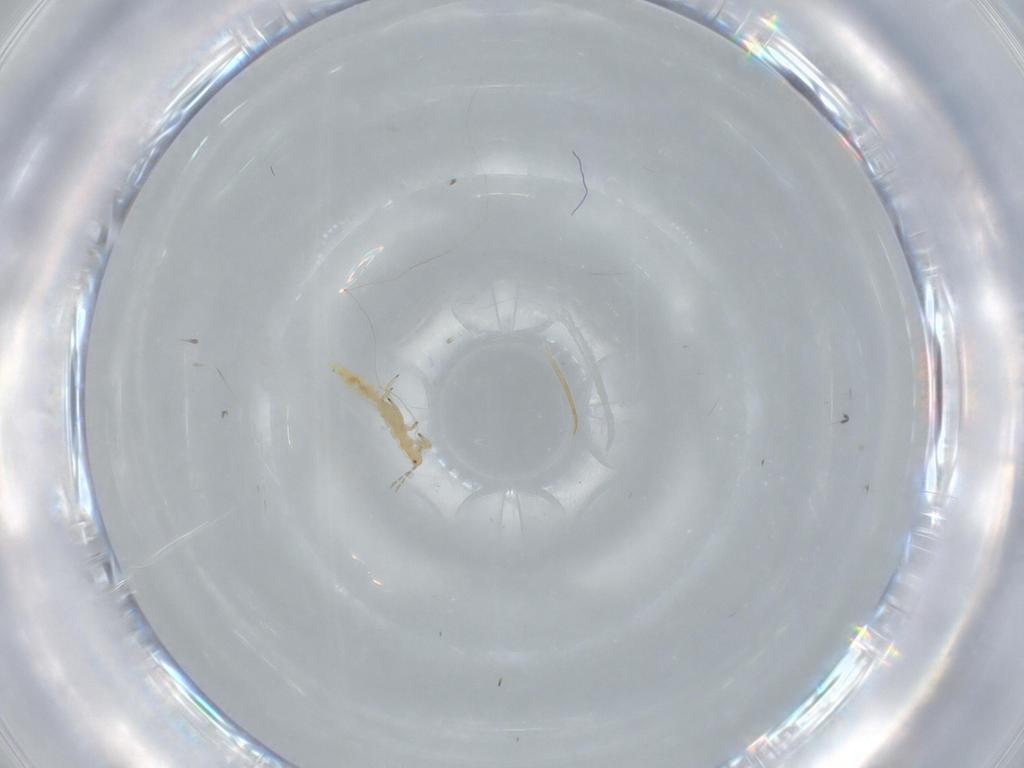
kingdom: Animalia
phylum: Arthropoda
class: Insecta
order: Thysanoptera
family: Aeolothripidae
